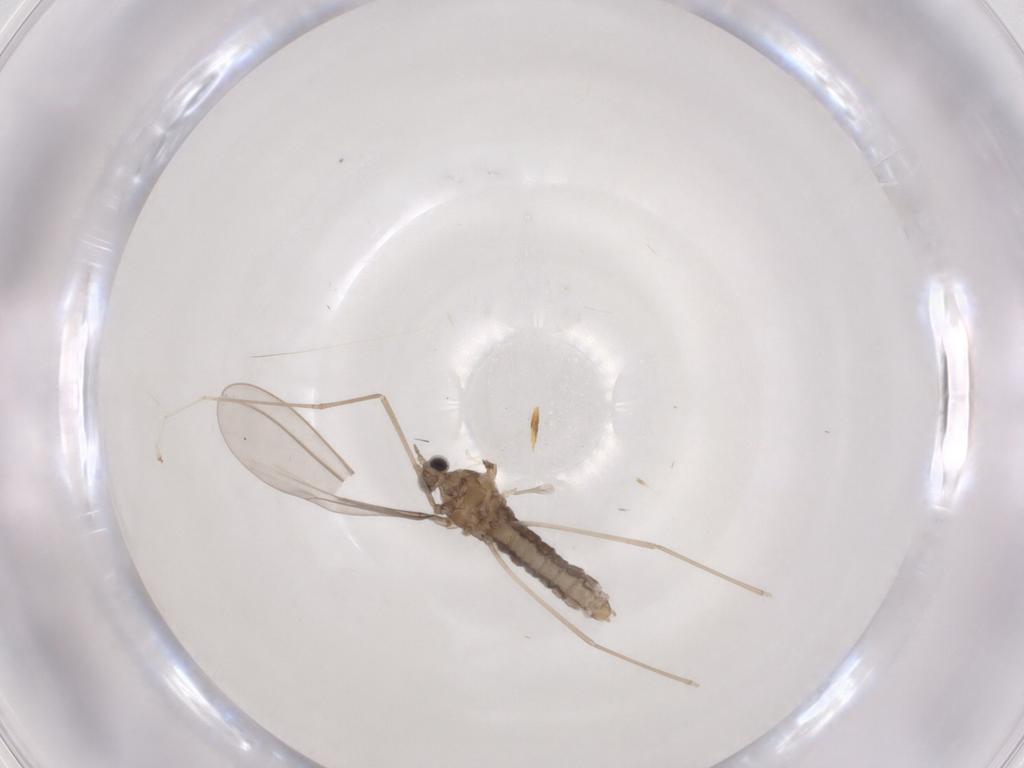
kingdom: Animalia
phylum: Arthropoda
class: Insecta
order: Diptera
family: Cecidomyiidae
